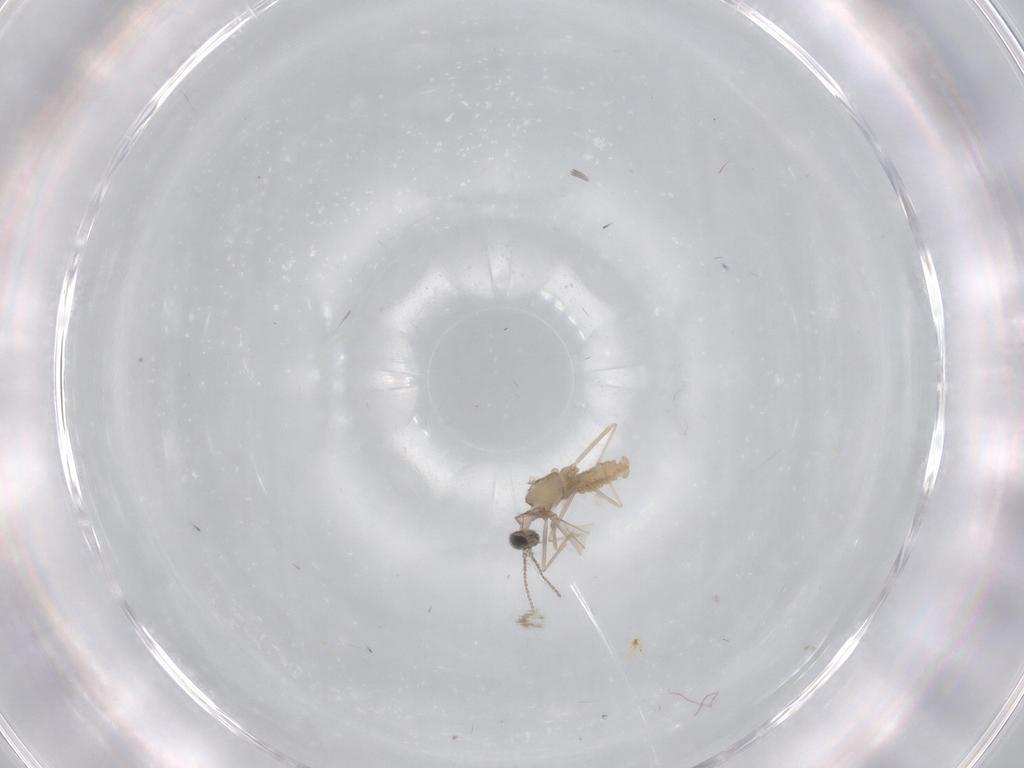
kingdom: Animalia
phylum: Arthropoda
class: Insecta
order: Diptera
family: Cecidomyiidae
